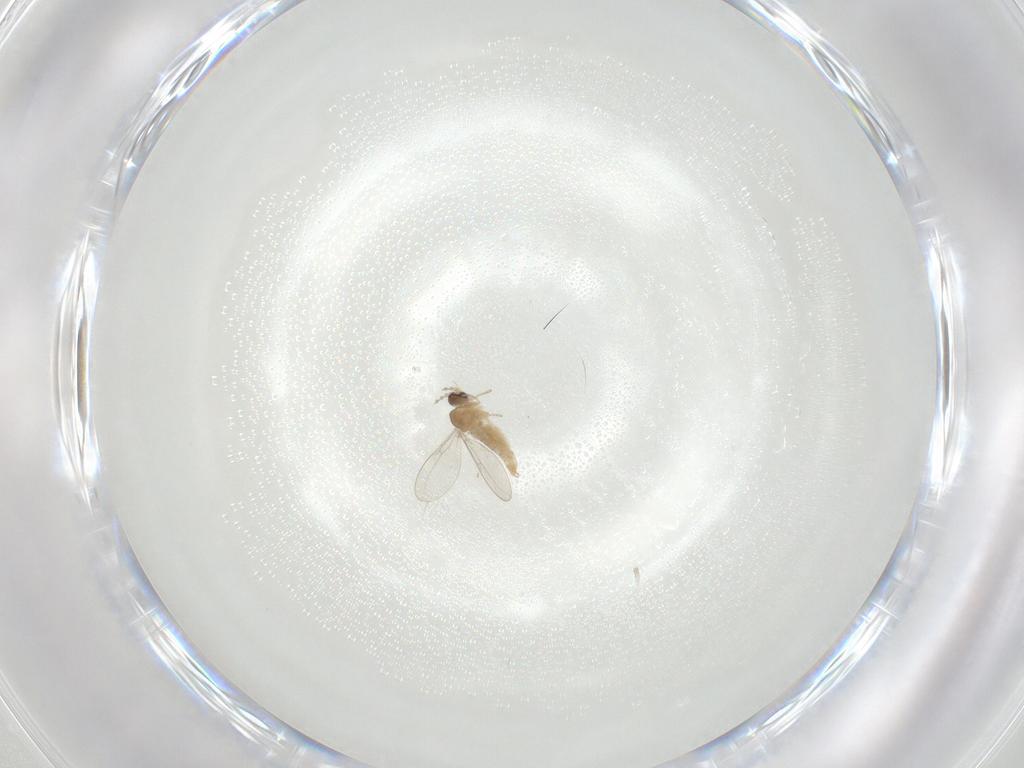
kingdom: Animalia
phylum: Arthropoda
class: Insecta
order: Diptera
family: Cecidomyiidae
